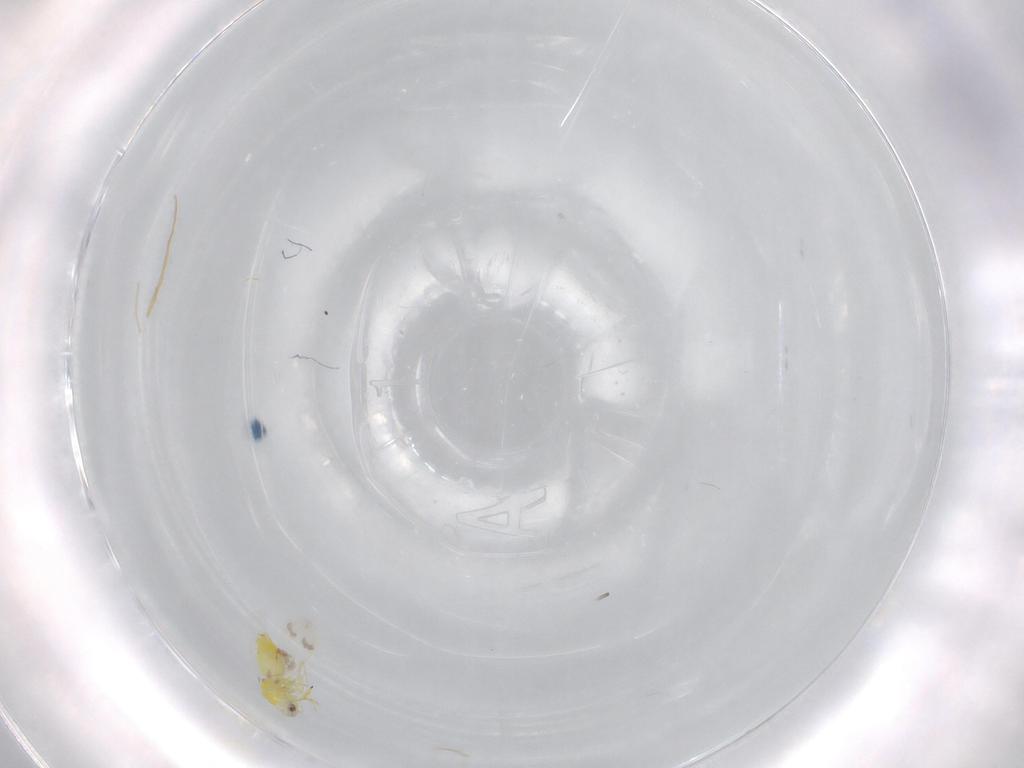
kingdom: Animalia
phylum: Arthropoda
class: Insecta
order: Hemiptera
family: Aleyrodidae
